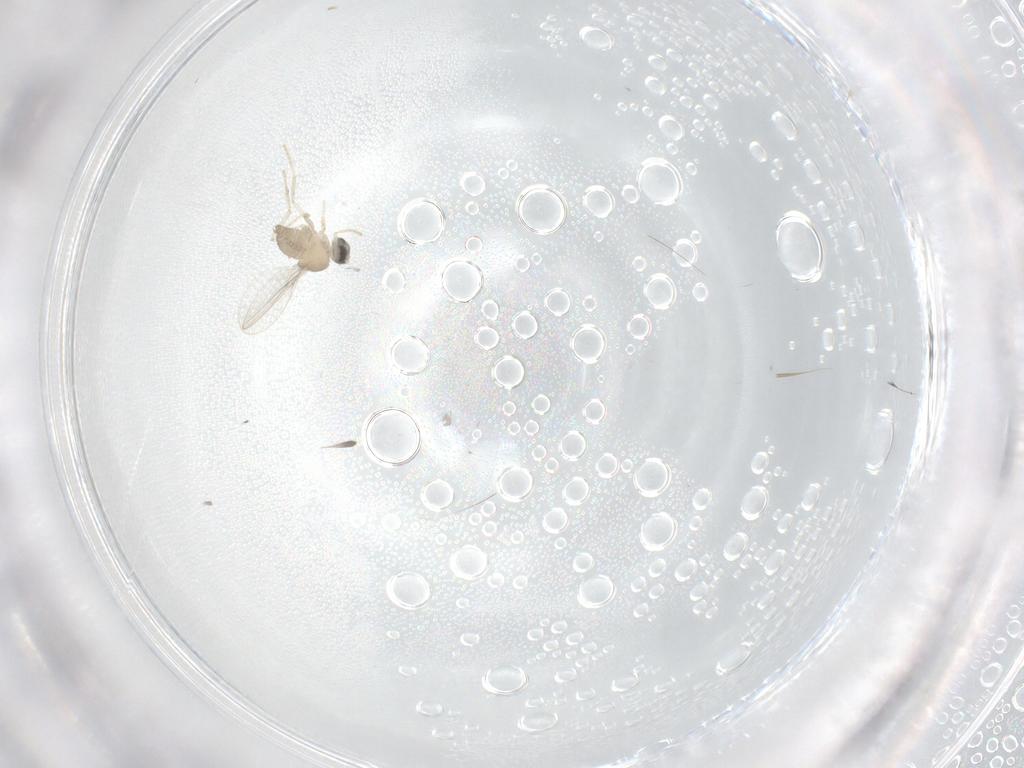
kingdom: Animalia
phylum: Arthropoda
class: Insecta
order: Diptera
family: Cecidomyiidae
